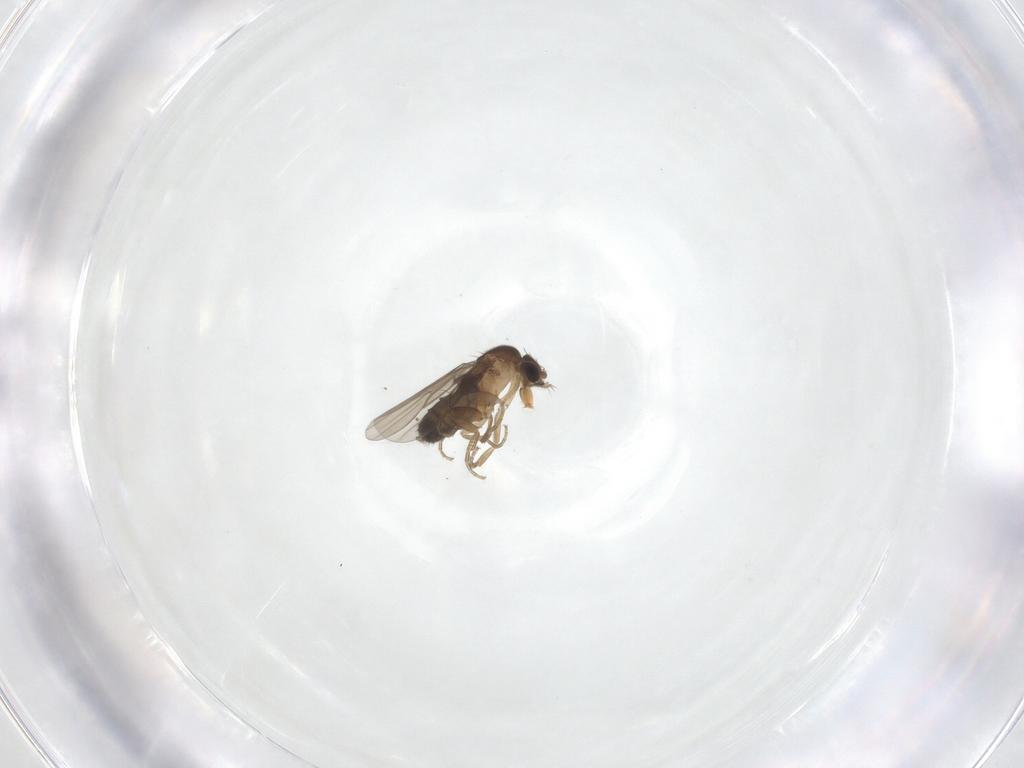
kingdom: Animalia
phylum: Arthropoda
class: Insecta
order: Diptera
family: Phoridae
